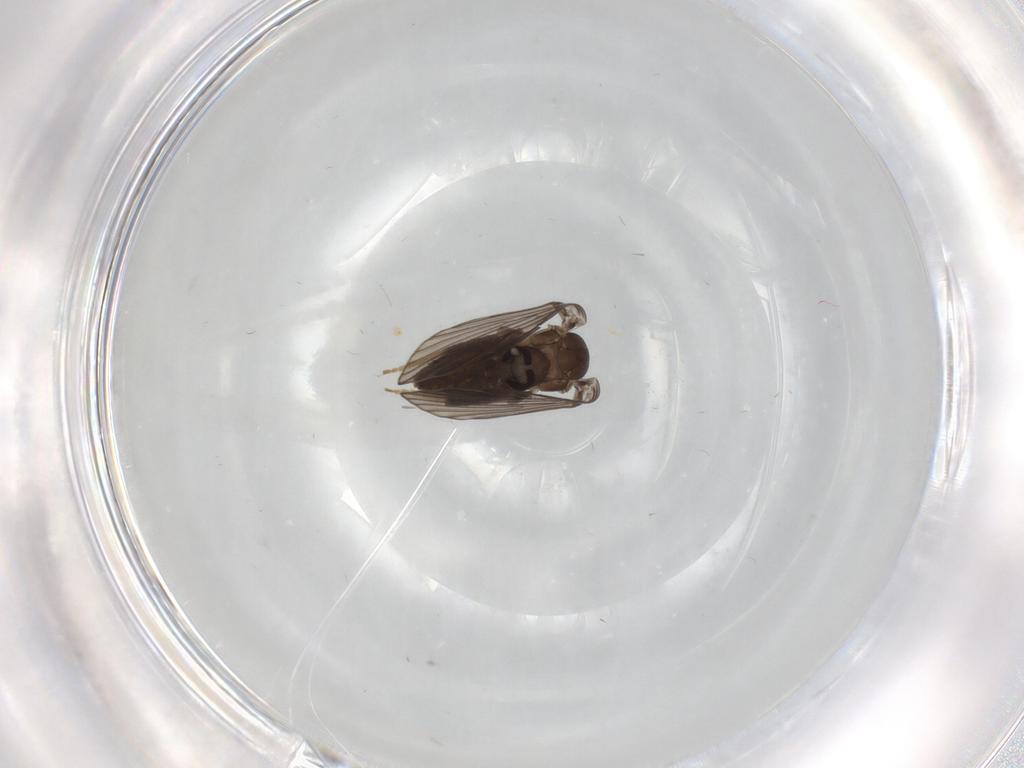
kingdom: Animalia
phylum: Arthropoda
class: Insecta
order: Diptera
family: Psychodidae
